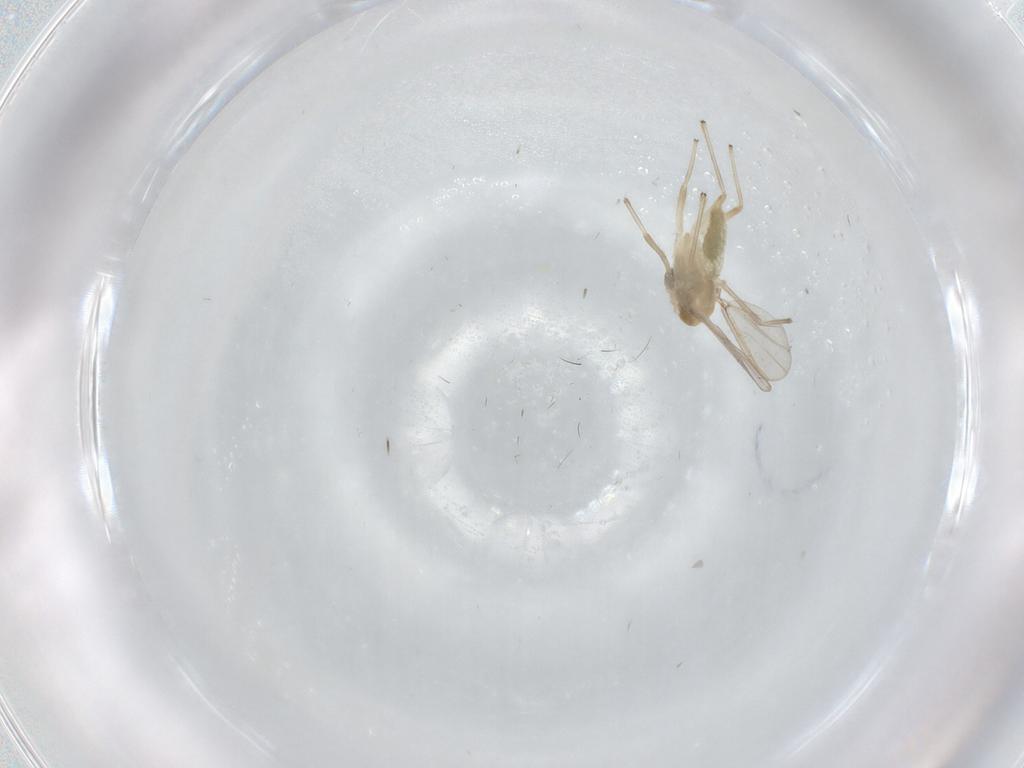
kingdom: Animalia
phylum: Arthropoda
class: Insecta
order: Diptera
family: Chironomidae
